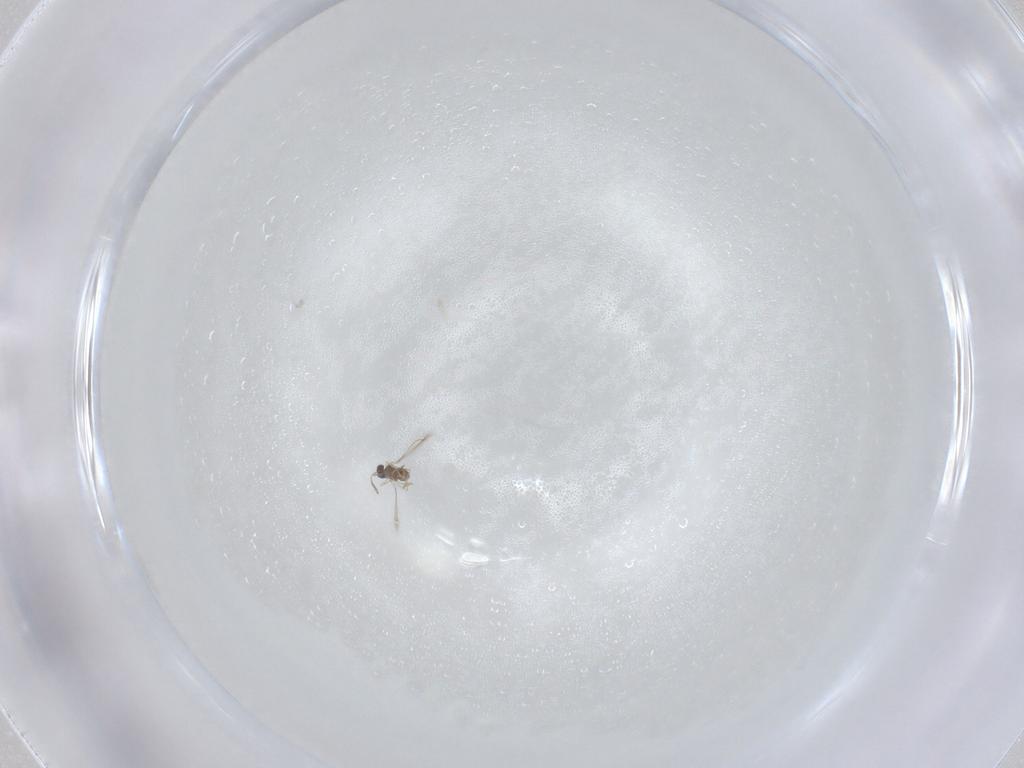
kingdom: Animalia
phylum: Arthropoda
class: Insecta
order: Diptera
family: Culicidae
